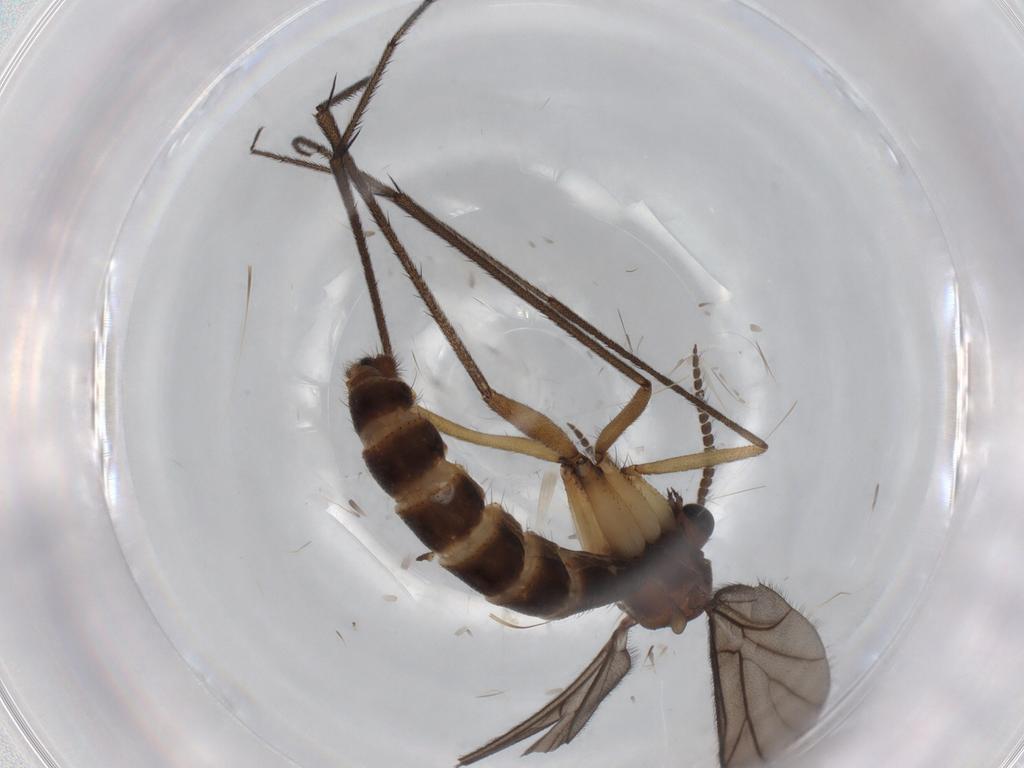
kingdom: Animalia
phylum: Arthropoda
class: Insecta
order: Diptera
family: Ditomyiidae
